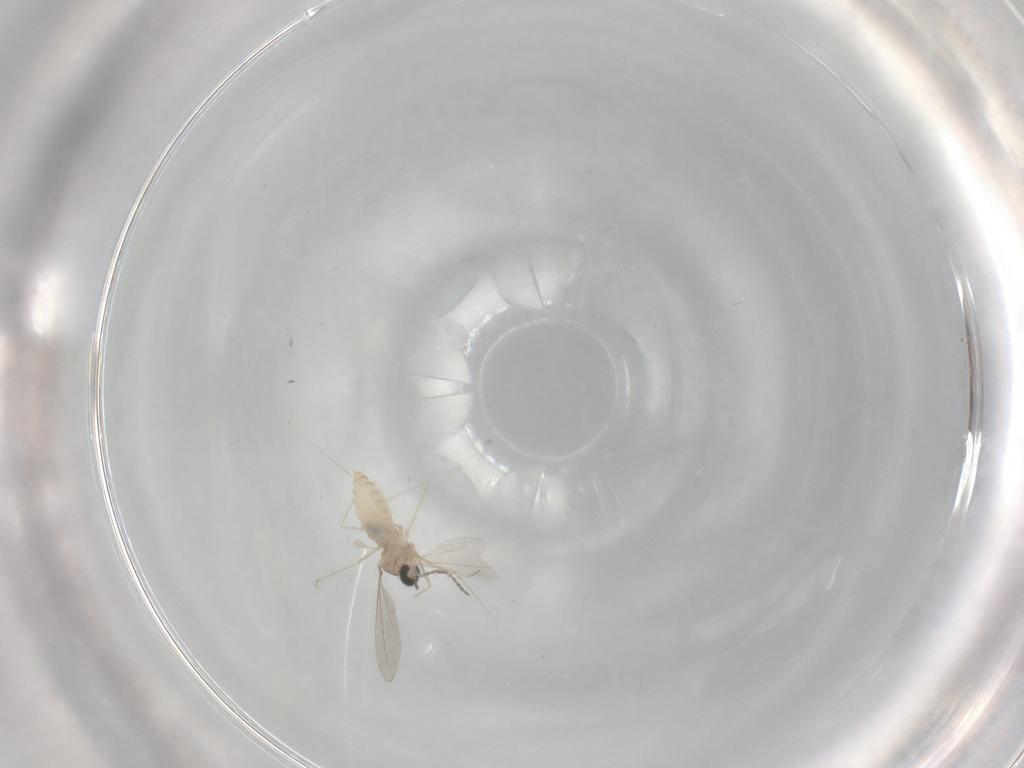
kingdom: Animalia
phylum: Arthropoda
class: Insecta
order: Diptera
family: Cecidomyiidae
